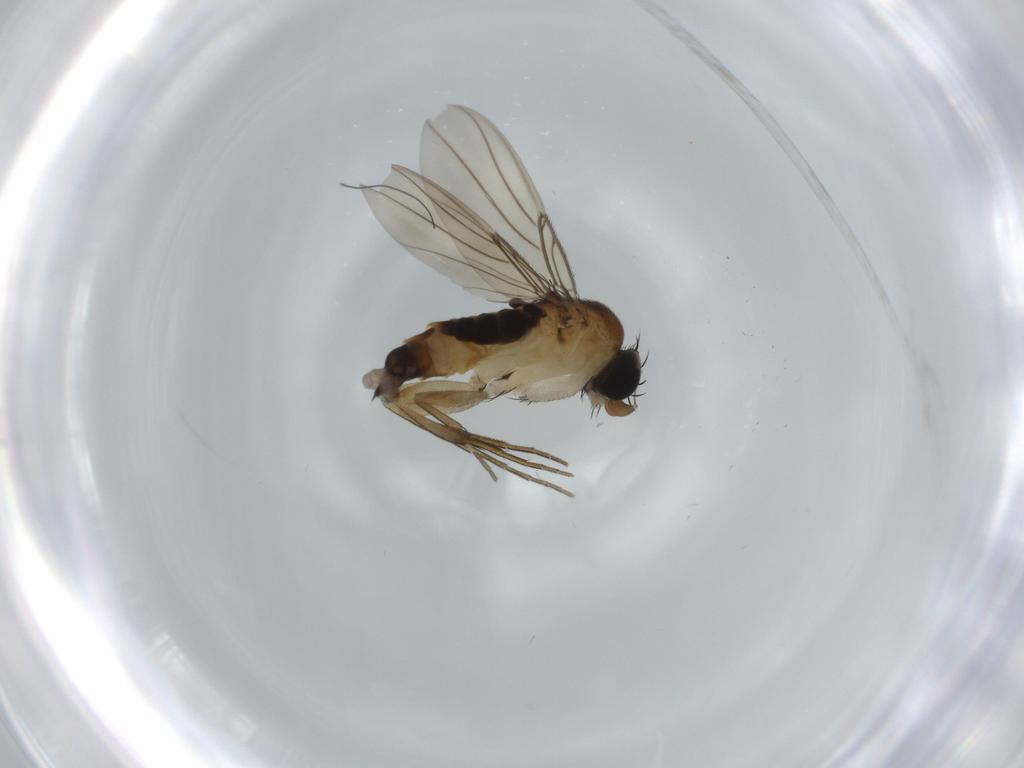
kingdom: Animalia
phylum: Arthropoda
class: Insecta
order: Diptera
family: Phoridae
